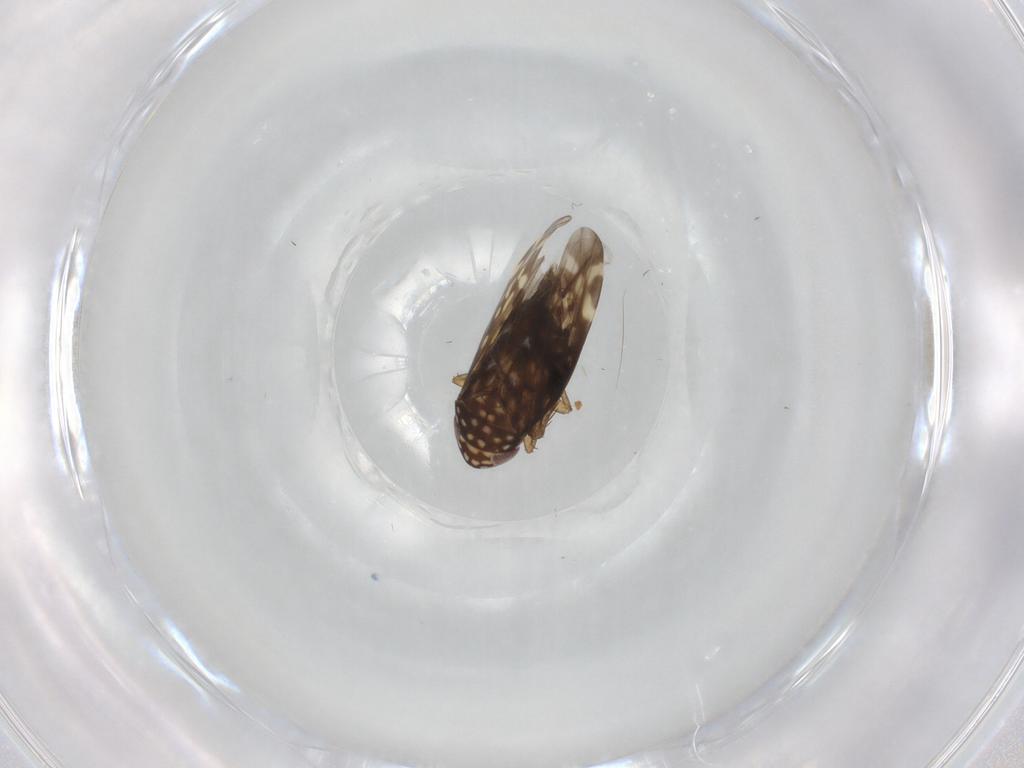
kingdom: Animalia
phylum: Arthropoda
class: Insecta
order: Hemiptera
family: Cicadellidae
